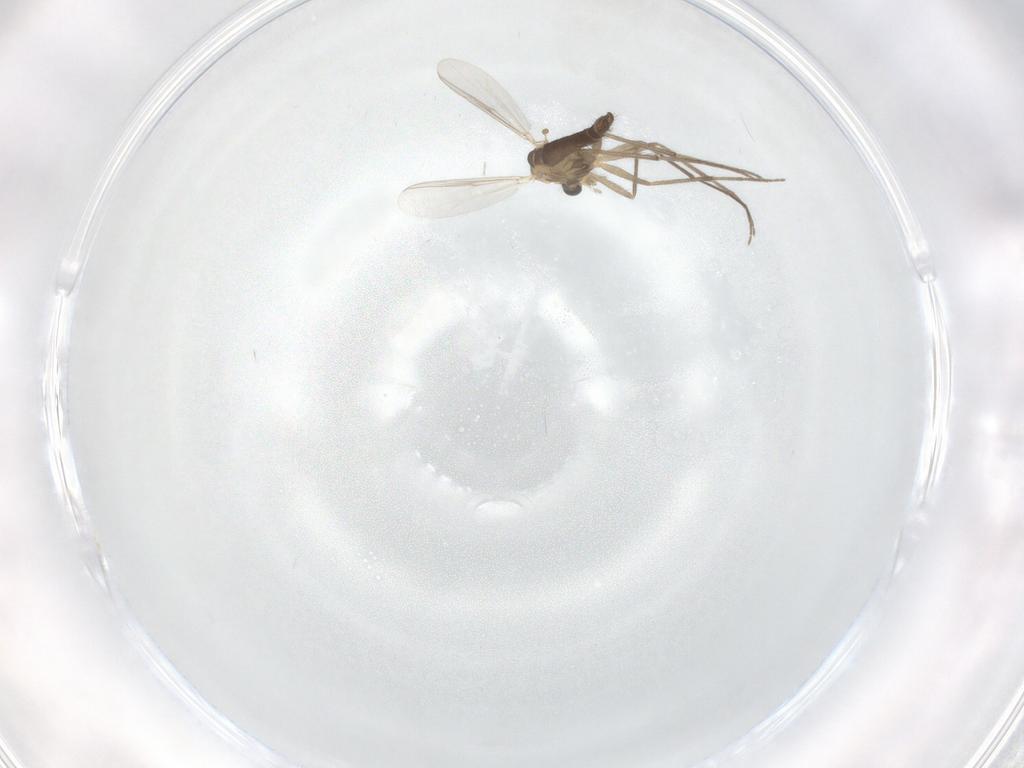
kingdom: Animalia
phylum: Arthropoda
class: Insecta
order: Diptera
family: Chironomidae
